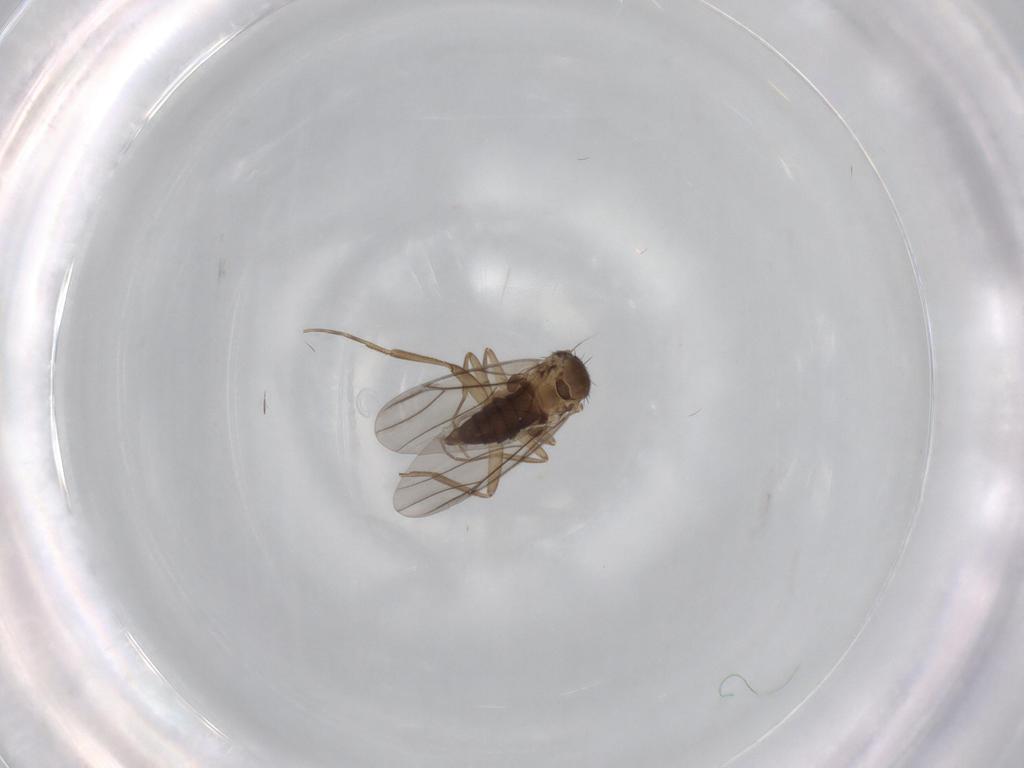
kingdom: Animalia
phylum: Arthropoda
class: Insecta
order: Diptera
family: Phoridae
